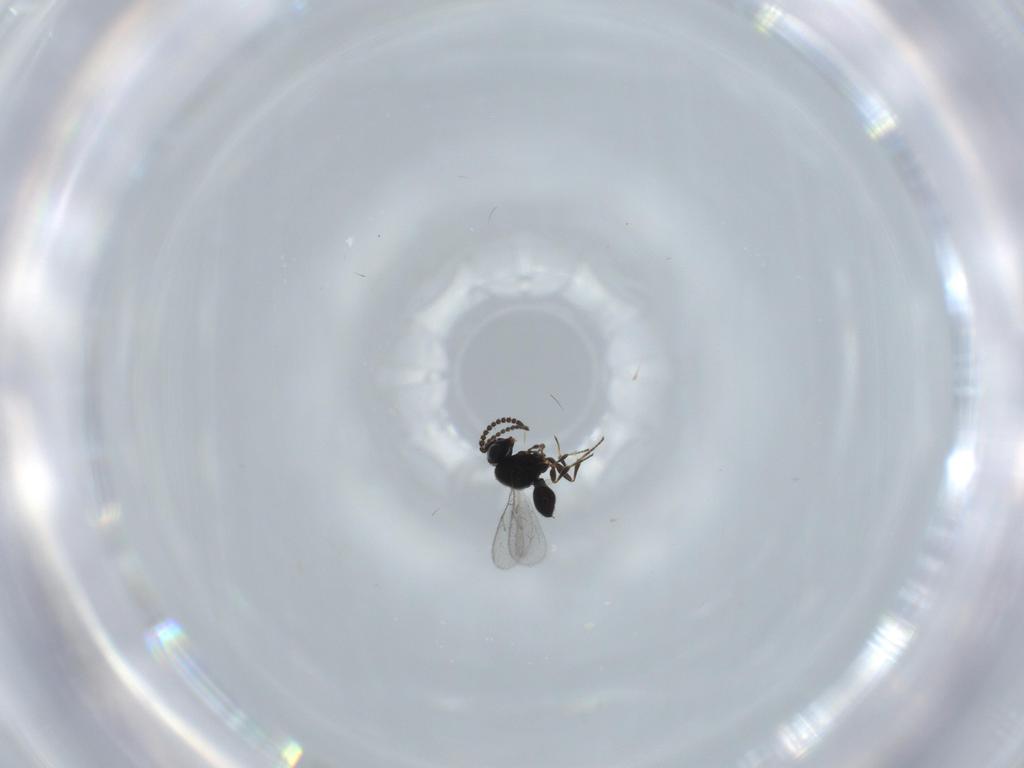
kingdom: Animalia
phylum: Arthropoda
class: Insecta
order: Hymenoptera
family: Scelionidae
